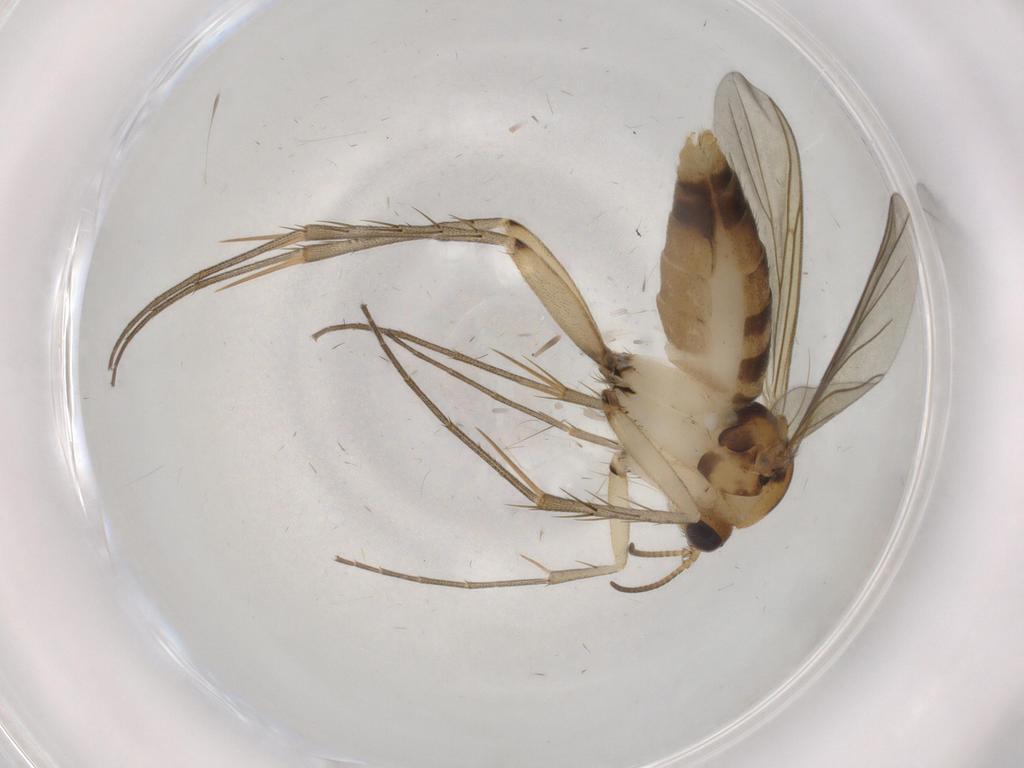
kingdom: Animalia
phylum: Arthropoda
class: Insecta
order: Diptera
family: Mycetophilidae
